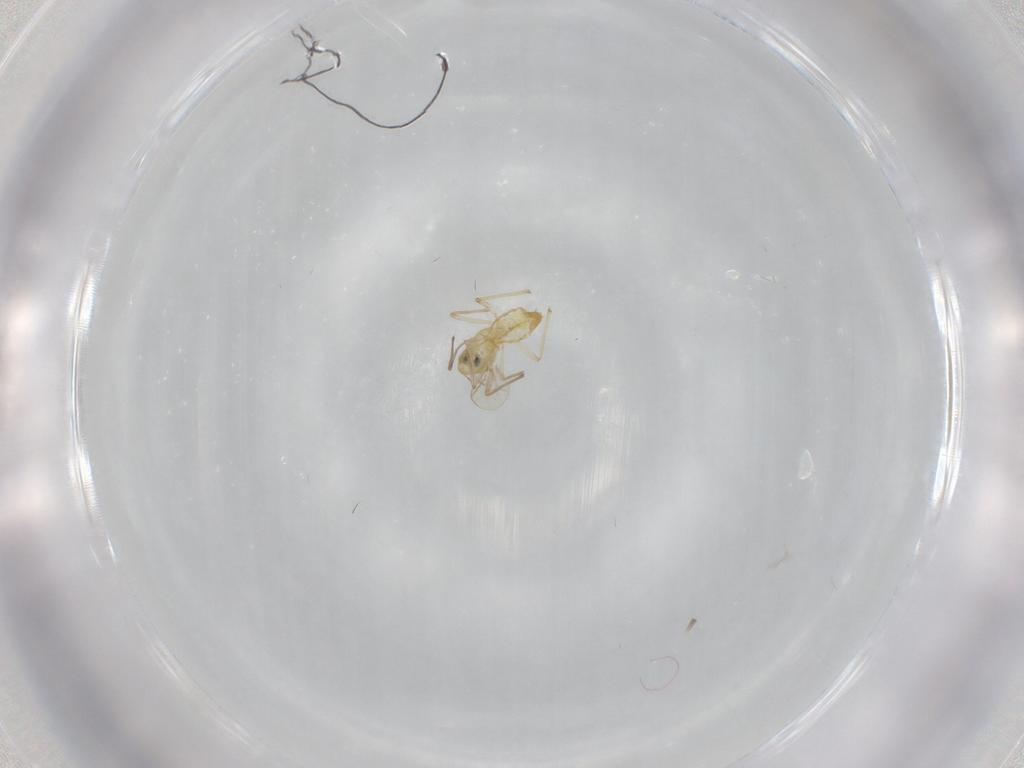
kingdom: Animalia
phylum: Arthropoda
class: Insecta
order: Diptera
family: Chironomidae
